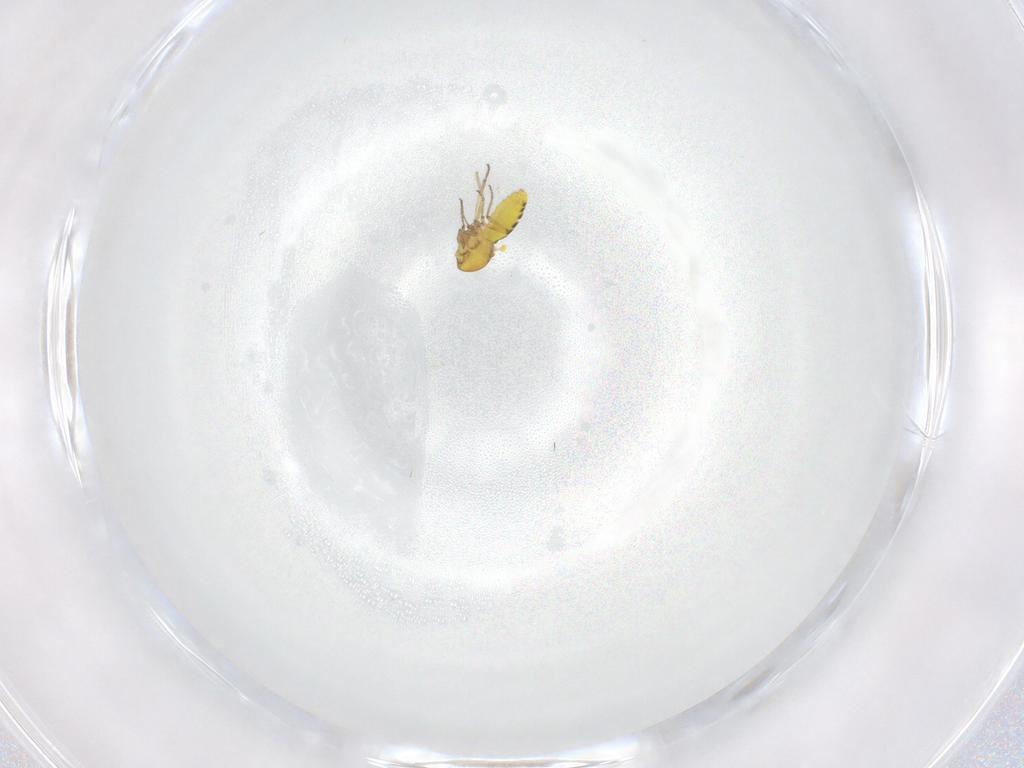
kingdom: Animalia
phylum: Arthropoda
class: Insecta
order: Diptera
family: Ceratopogonidae
